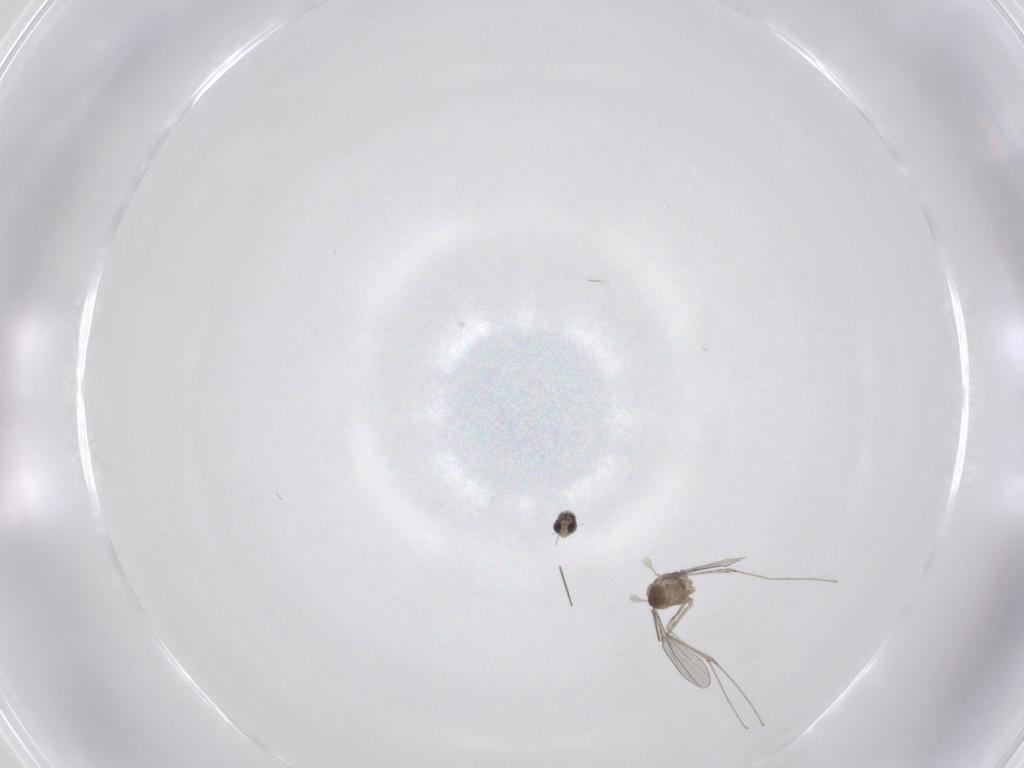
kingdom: Animalia
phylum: Arthropoda
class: Insecta
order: Diptera
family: Cecidomyiidae
